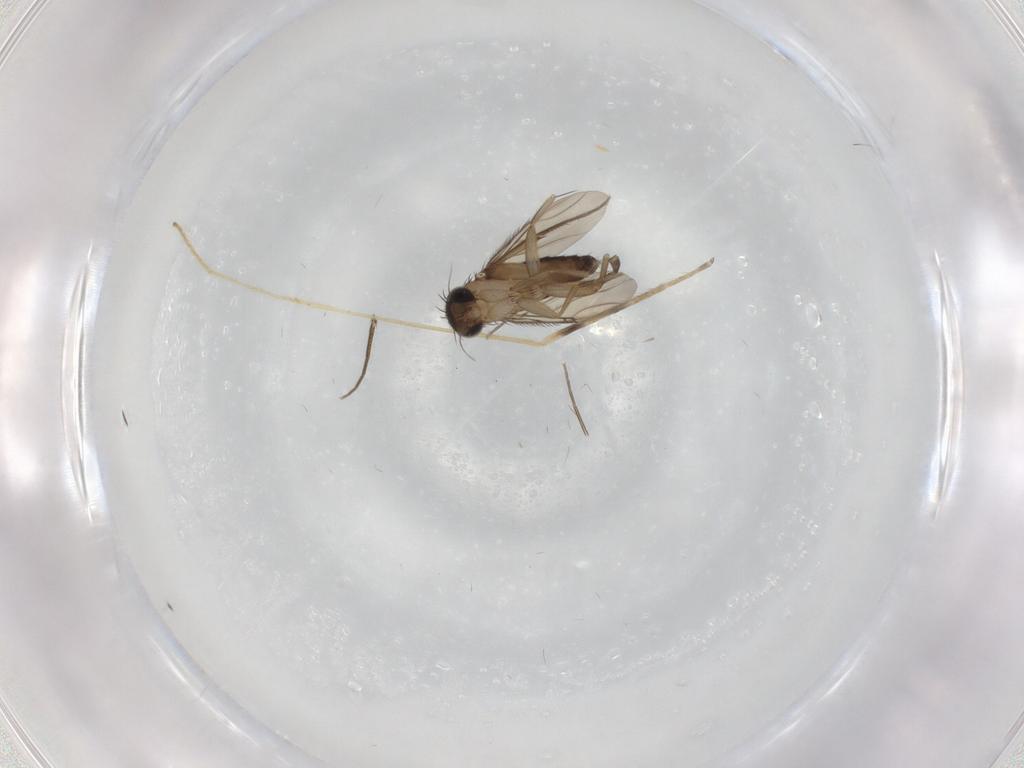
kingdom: Animalia
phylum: Arthropoda
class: Insecta
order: Diptera
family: Phoridae
